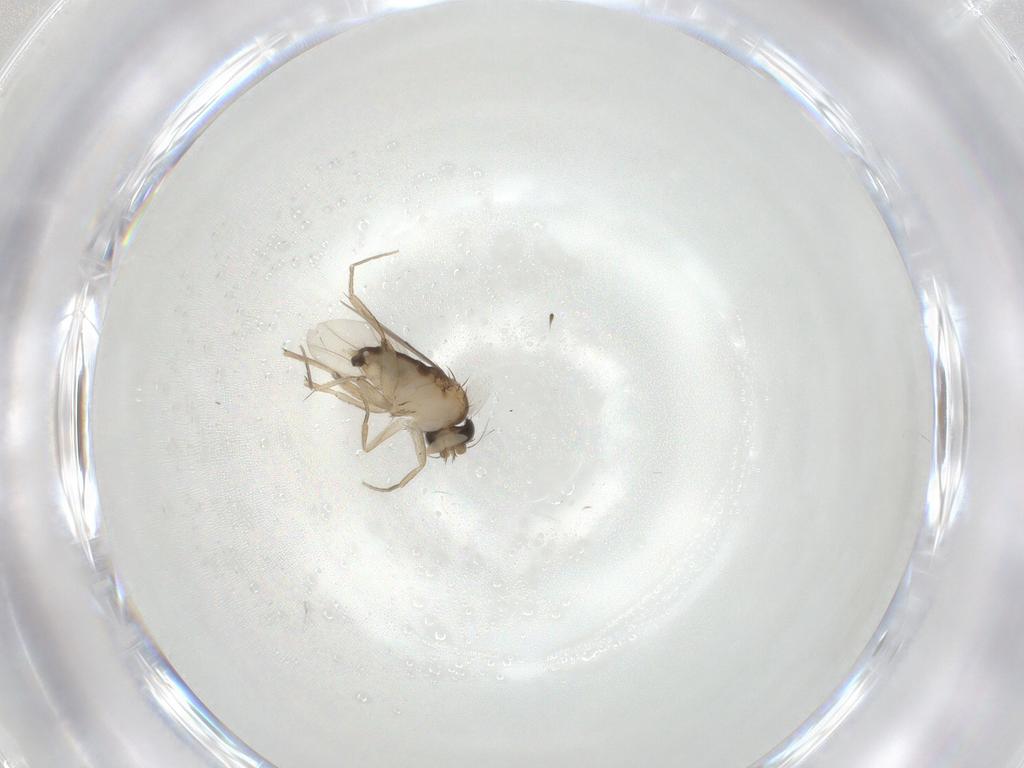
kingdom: Animalia
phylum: Arthropoda
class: Insecta
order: Diptera
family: Phoridae
